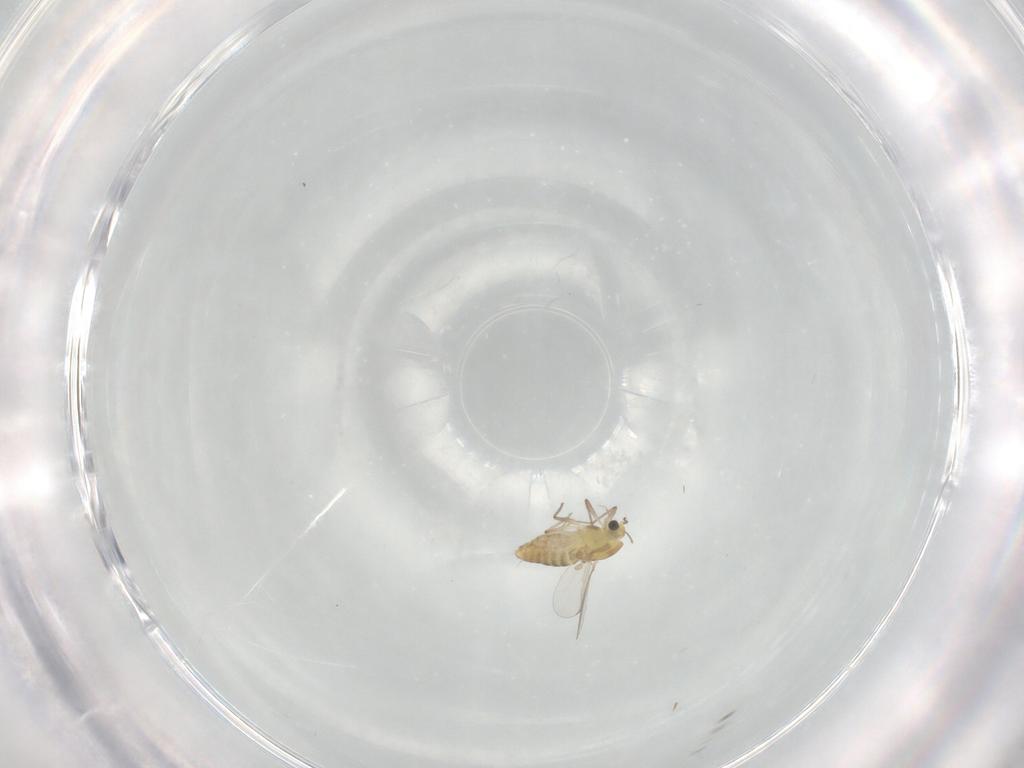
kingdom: Animalia
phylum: Arthropoda
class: Insecta
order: Diptera
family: Chironomidae
